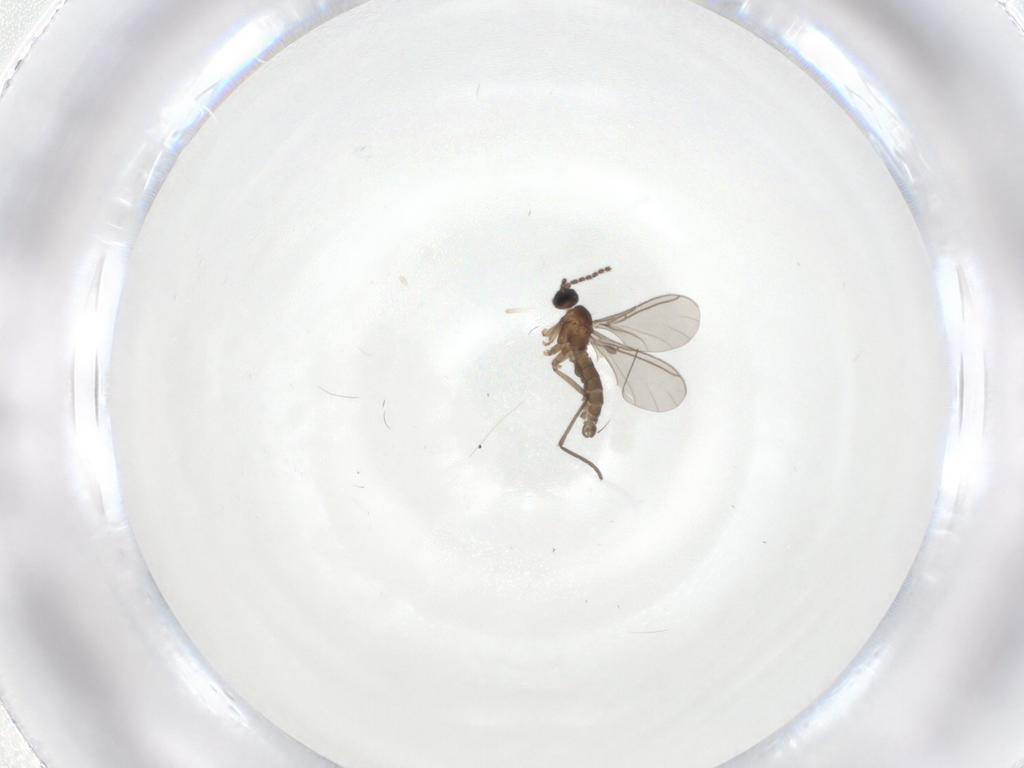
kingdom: Animalia
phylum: Arthropoda
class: Insecta
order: Diptera
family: Sciaridae
